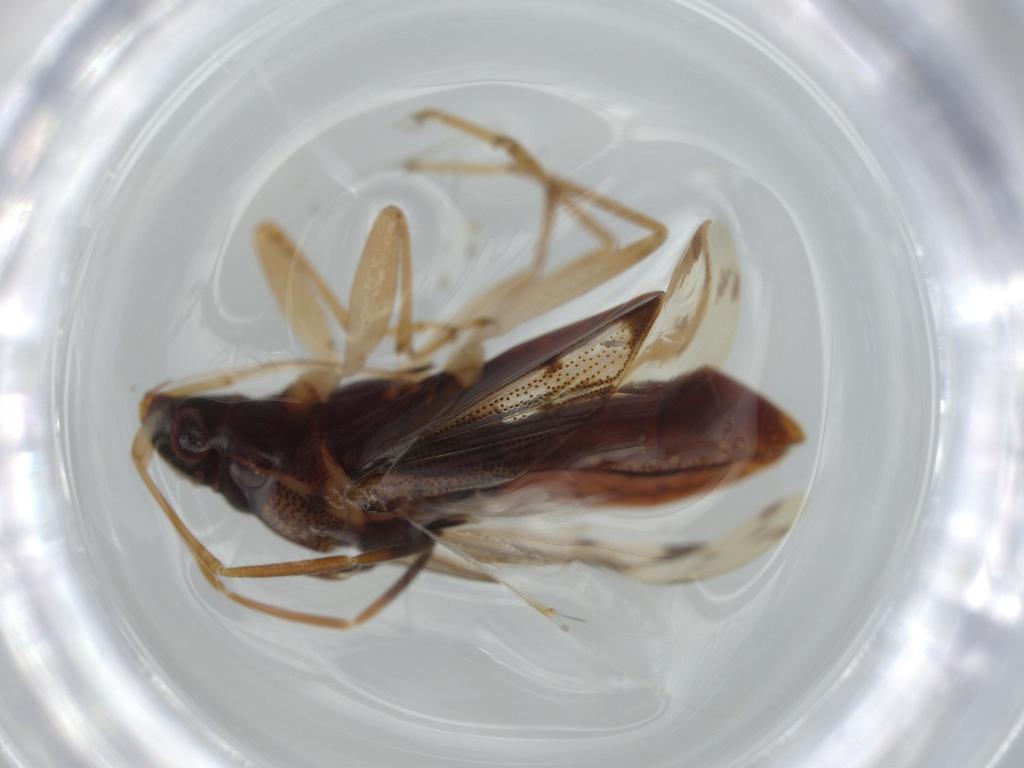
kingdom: Animalia
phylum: Arthropoda
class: Insecta
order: Hemiptera
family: Rhyparochromidae
